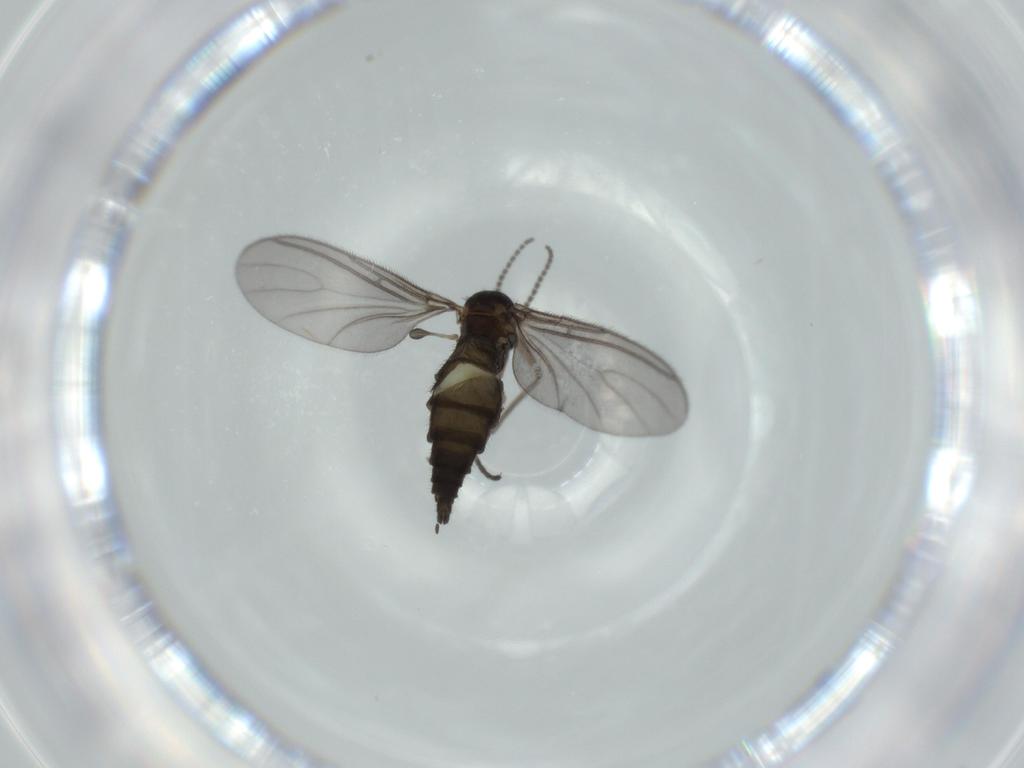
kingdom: Animalia
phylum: Arthropoda
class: Insecta
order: Diptera
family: Sciaridae
